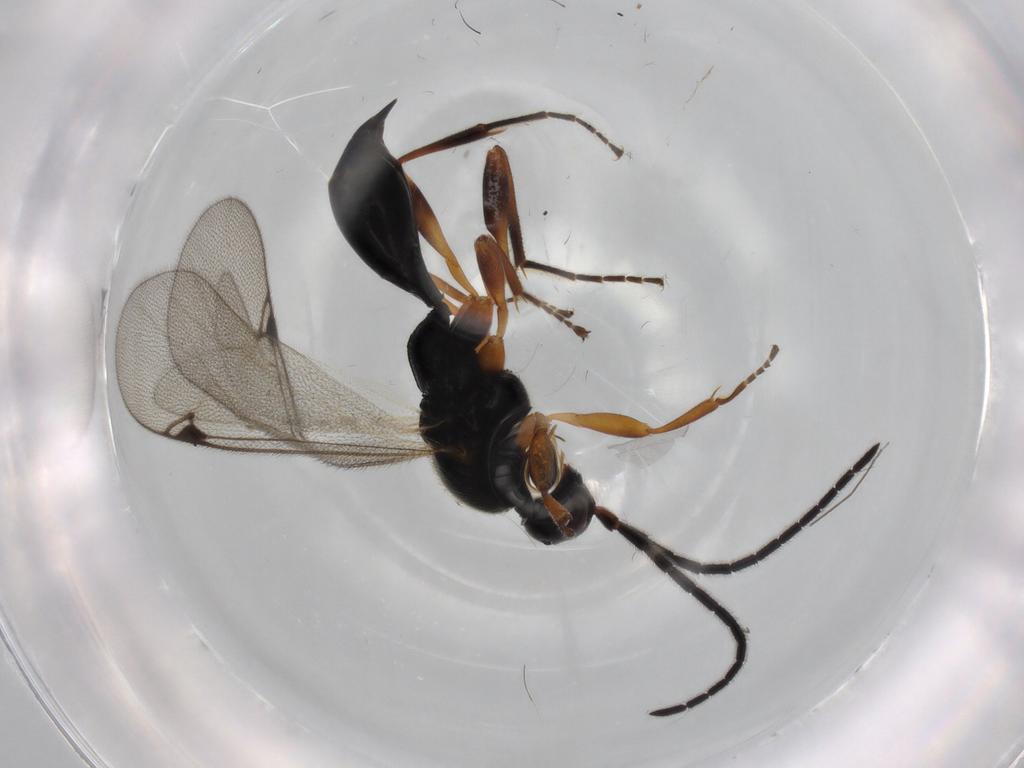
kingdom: Animalia
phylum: Arthropoda
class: Insecta
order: Hymenoptera
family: Proctotrupidae
